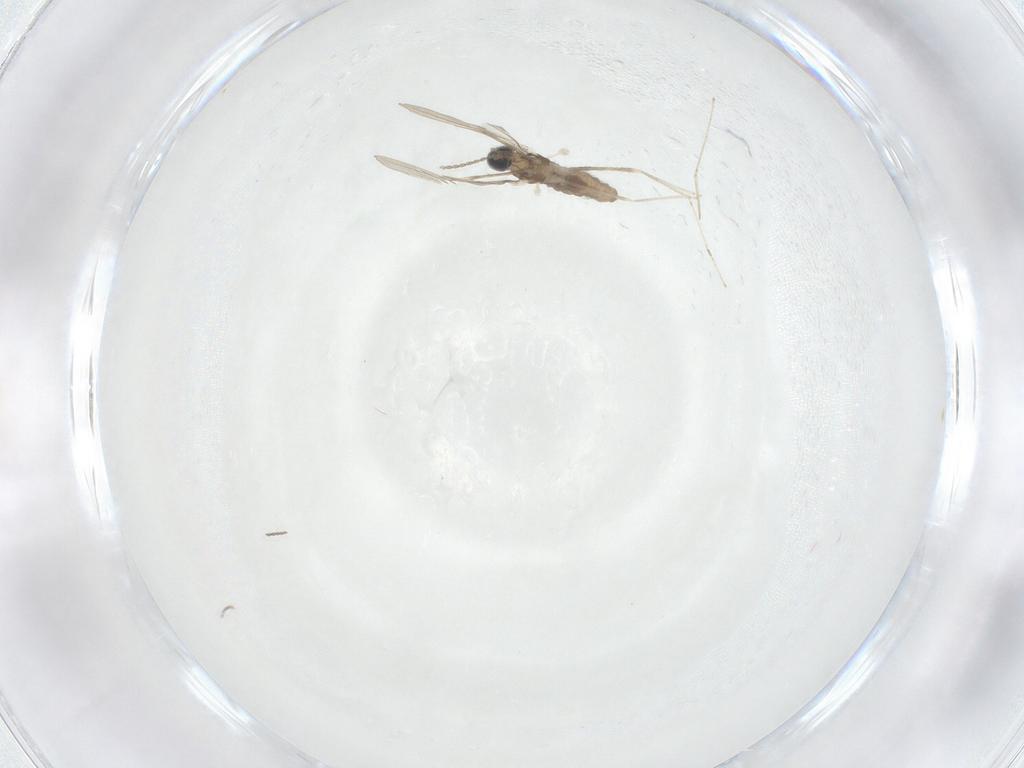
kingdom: Animalia
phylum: Arthropoda
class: Insecta
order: Diptera
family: Cecidomyiidae
